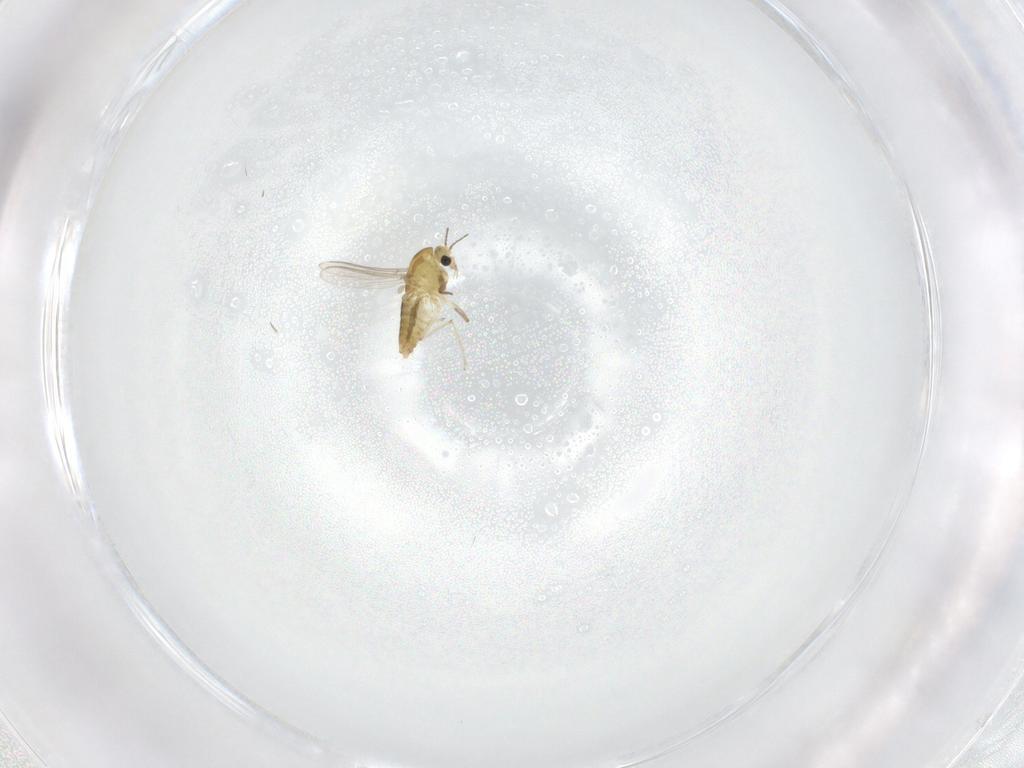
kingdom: Animalia
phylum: Arthropoda
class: Insecta
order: Diptera
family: Chironomidae
